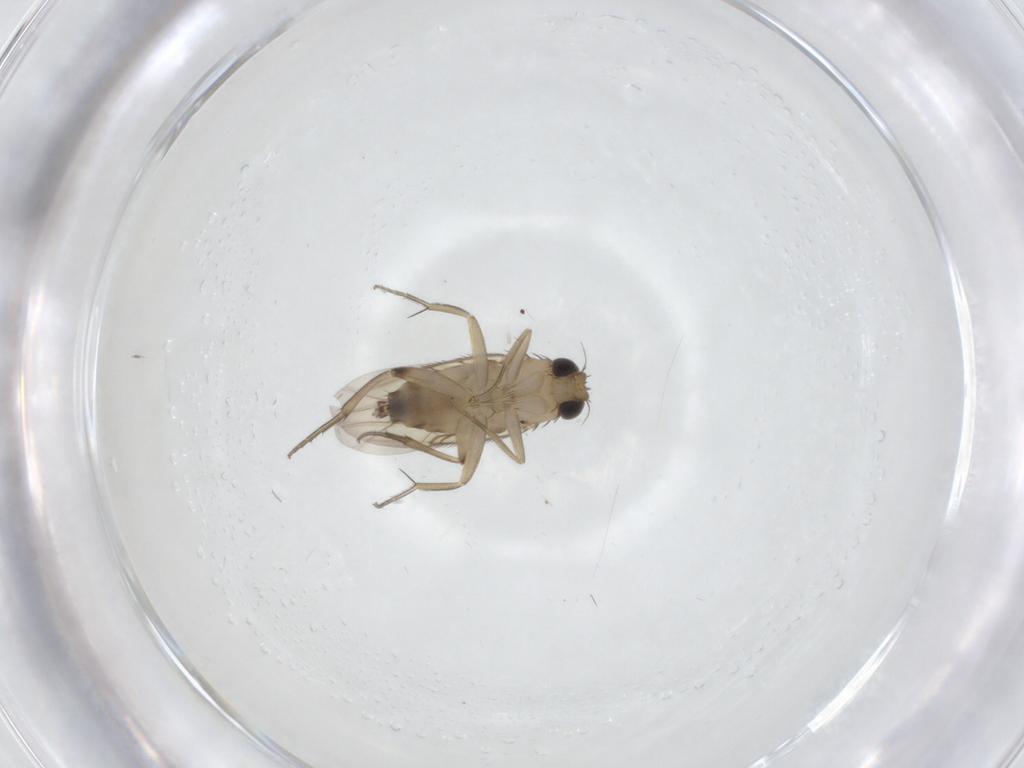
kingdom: Animalia
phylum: Arthropoda
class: Insecta
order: Diptera
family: Phoridae
